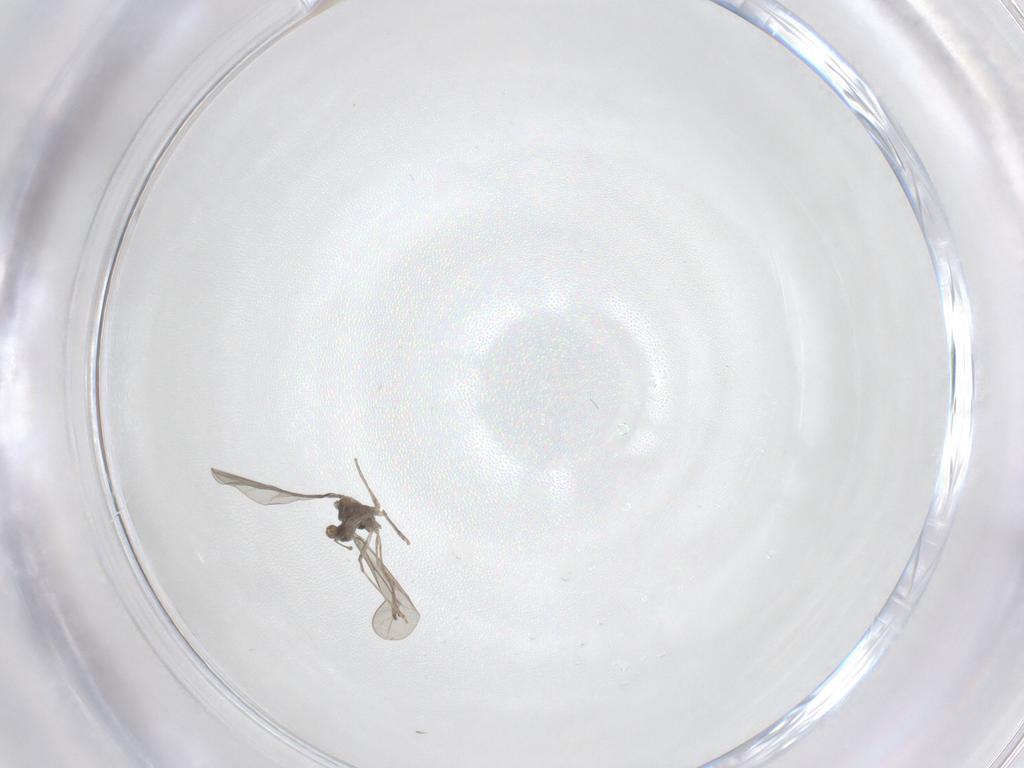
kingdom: Animalia
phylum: Arthropoda
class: Insecta
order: Diptera
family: Cecidomyiidae
